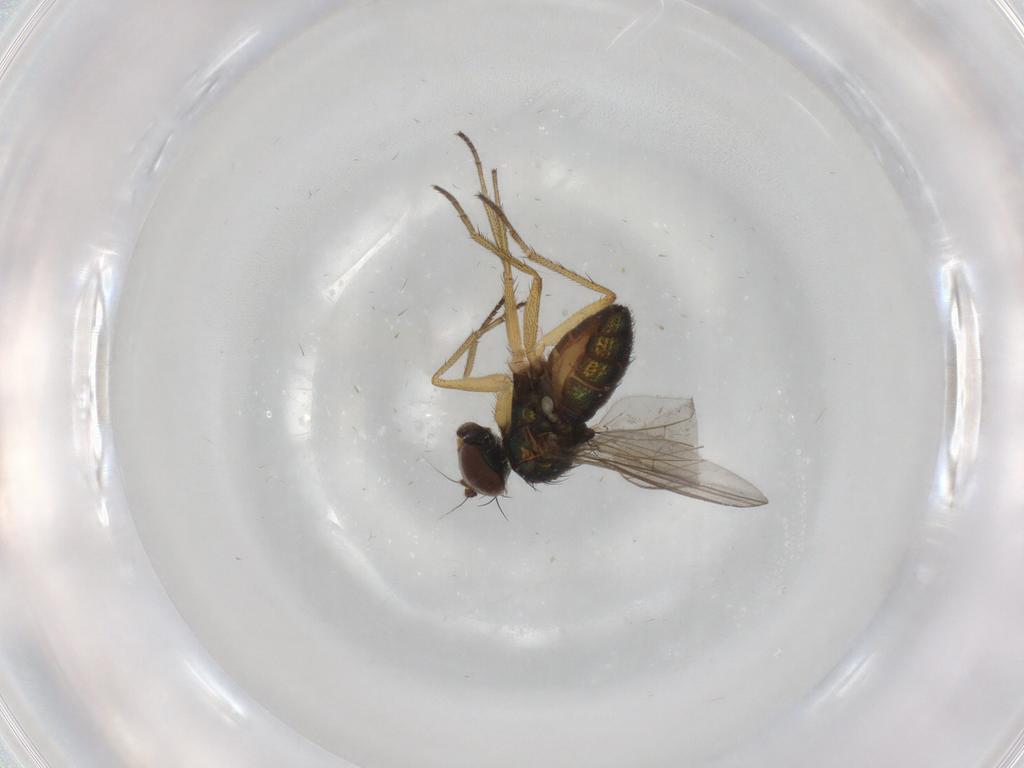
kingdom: Animalia
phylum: Arthropoda
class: Insecta
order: Diptera
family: Dolichopodidae
